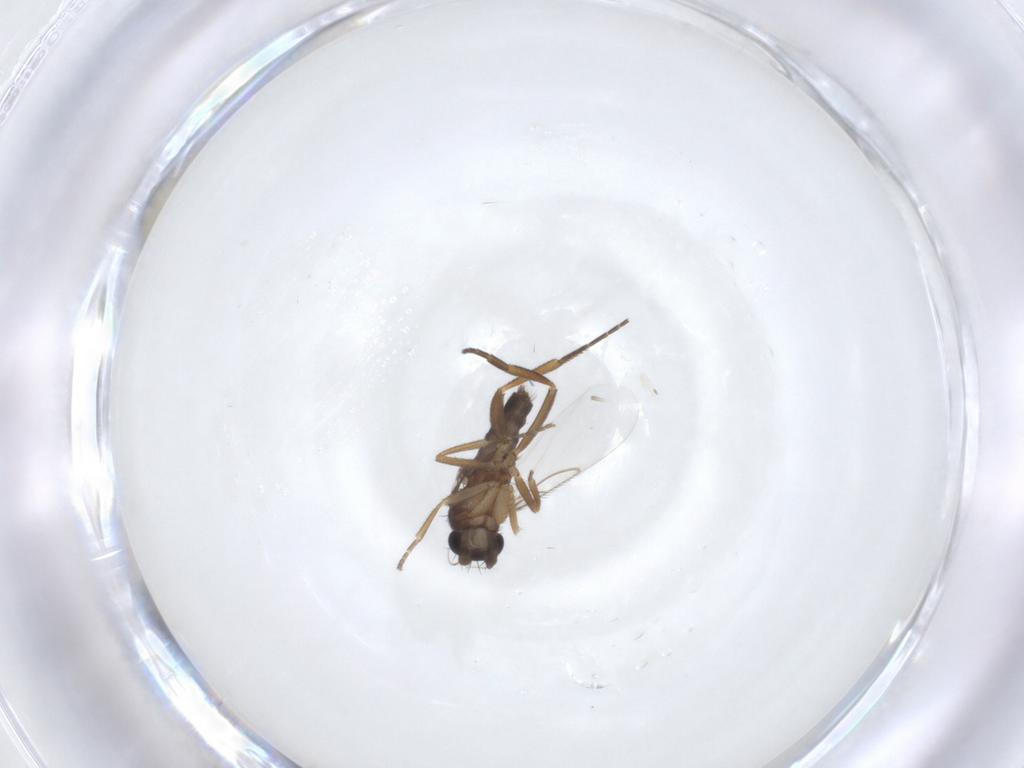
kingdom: Animalia
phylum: Arthropoda
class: Insecta
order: Diptera
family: Phoridae
